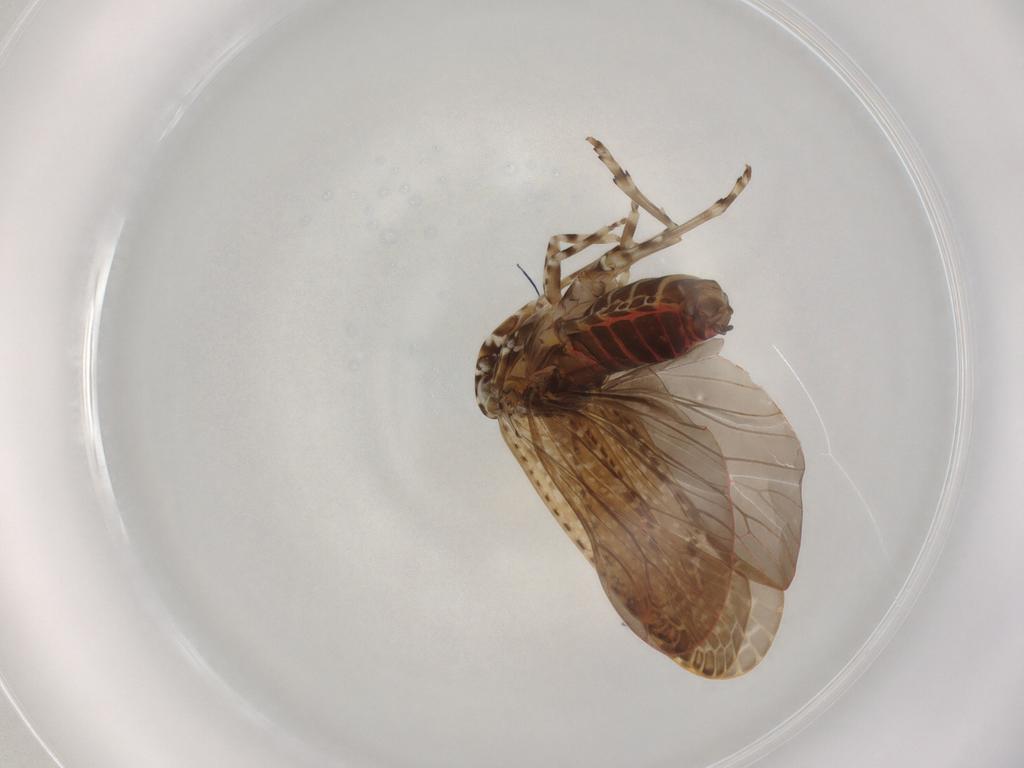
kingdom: Animalia
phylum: Arthropoda
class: Insecta
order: Hemiptera
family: Achilidae
